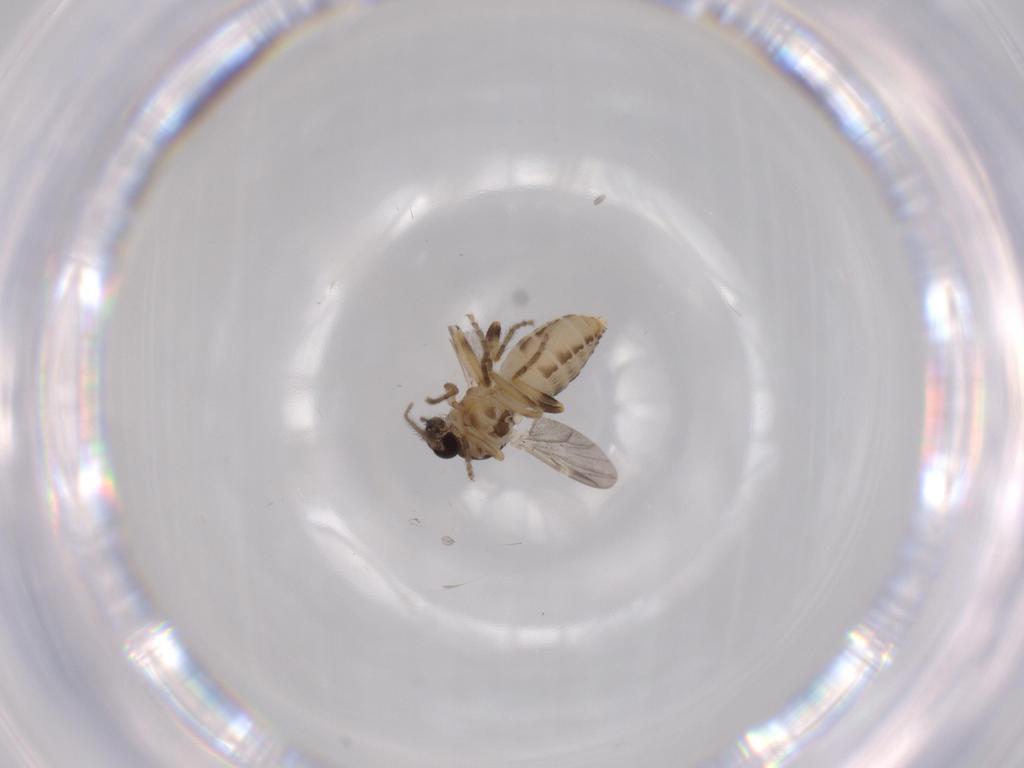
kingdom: Animalia
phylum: Arthropoda
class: Insecta
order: Diptera
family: Ceratopogonidae
